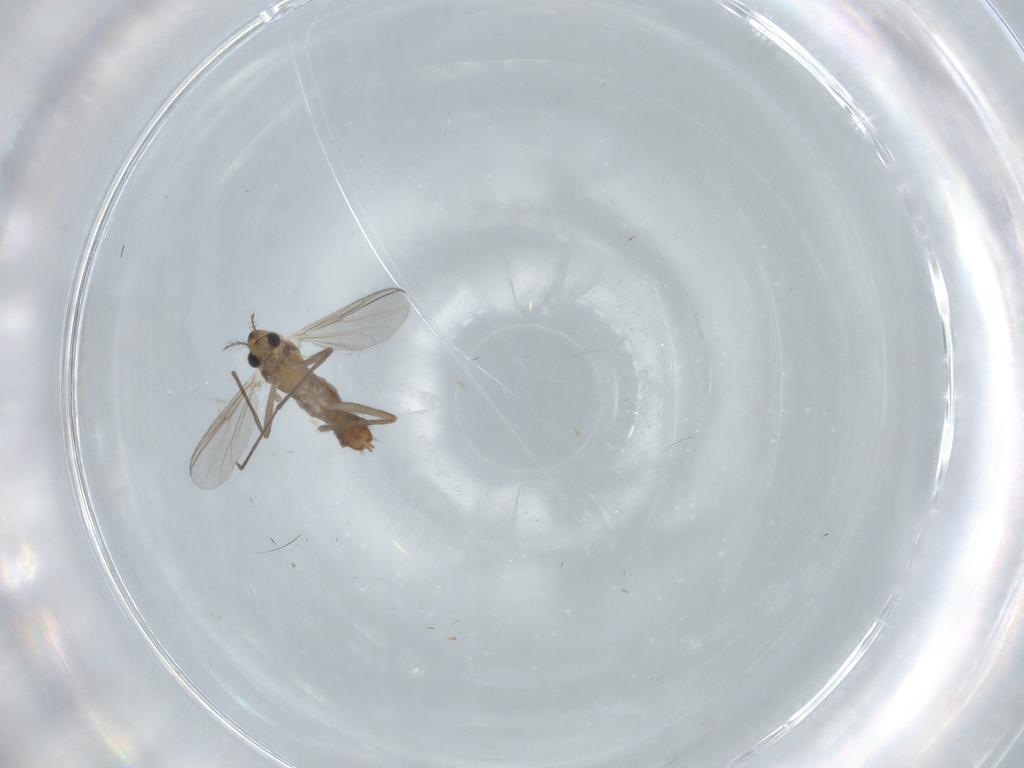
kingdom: Animalia
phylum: Arthropoda
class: Insecta
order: Diptera
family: Chironomidae
